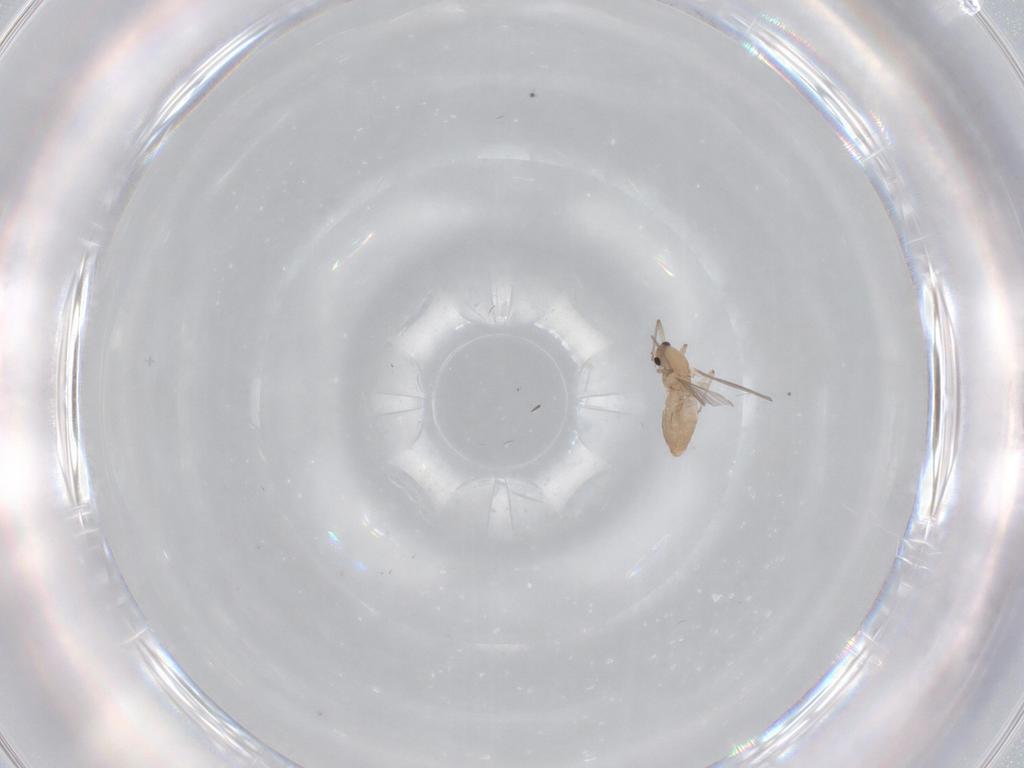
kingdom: Animalia
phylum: Arthropoda
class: Insecta
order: Diptera
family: Chironomidae
